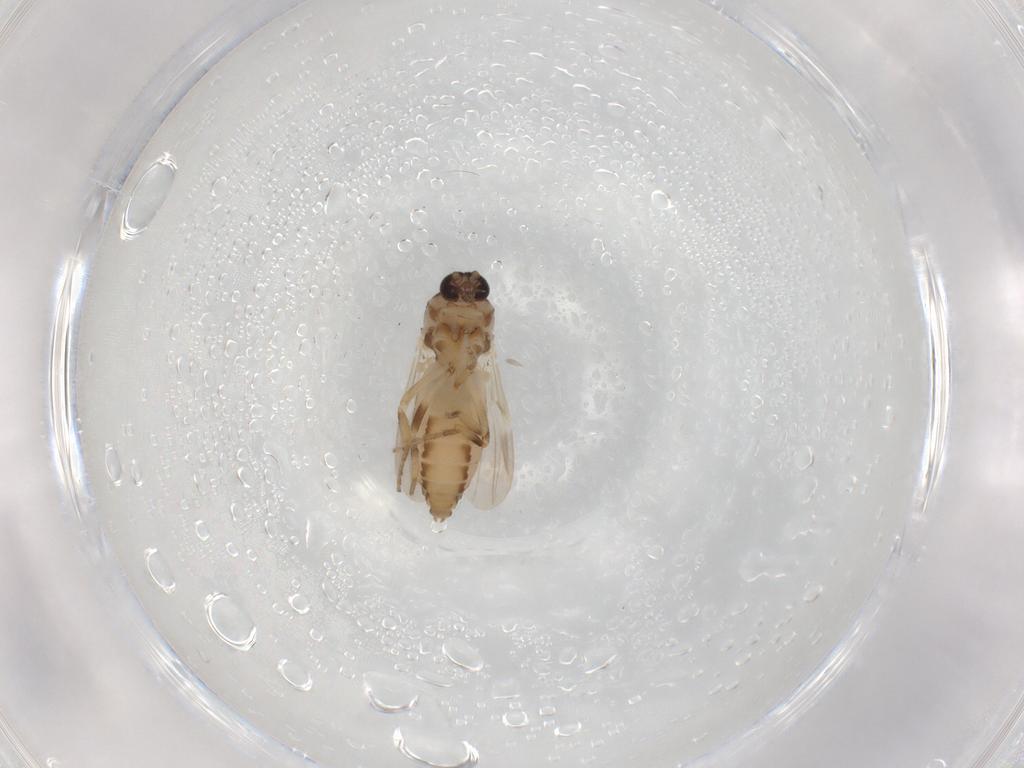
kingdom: Animalia
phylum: Arthropoda
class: Insecta
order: Diptera
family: Ceratopogonidae
